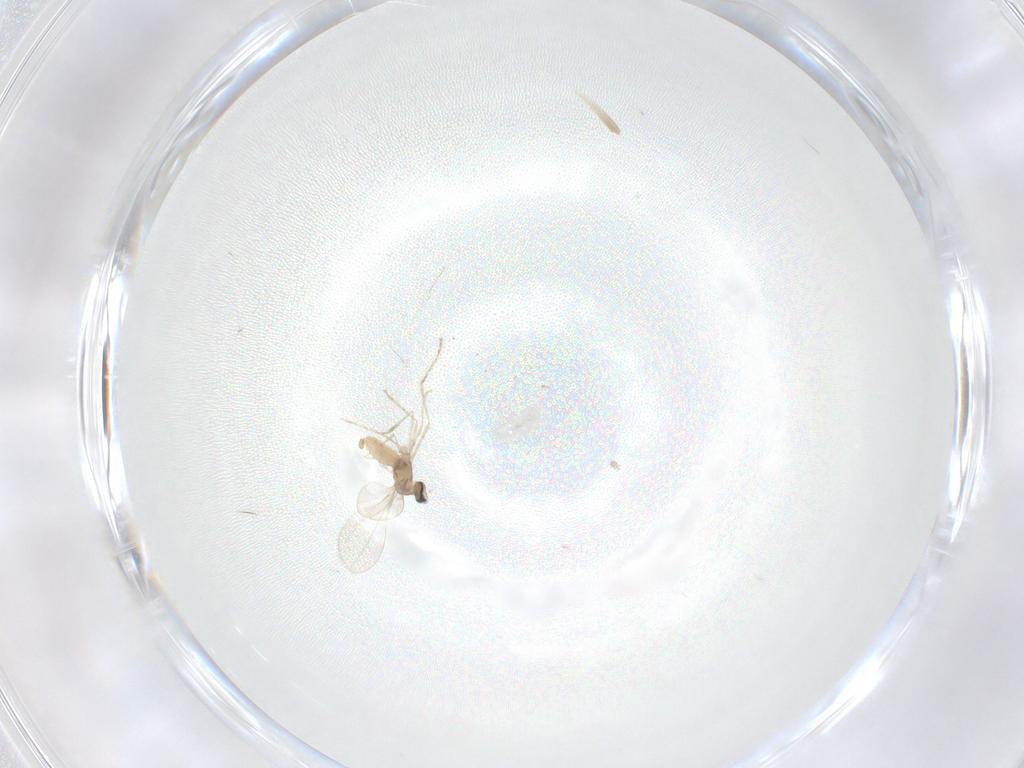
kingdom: Animalia
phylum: Arthropoda
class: Insecta
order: Diptera
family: Cecidomyiidae
